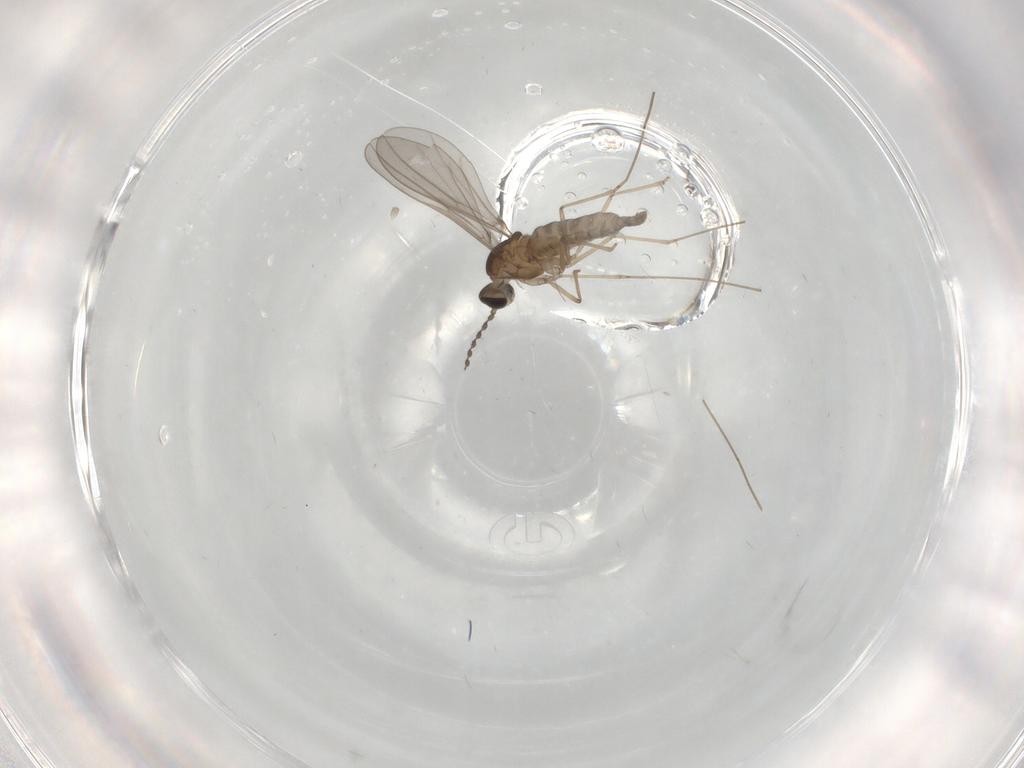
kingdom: Animalia
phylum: Arthropoda
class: Insecta
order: Diptera
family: Cecidomyiidae
